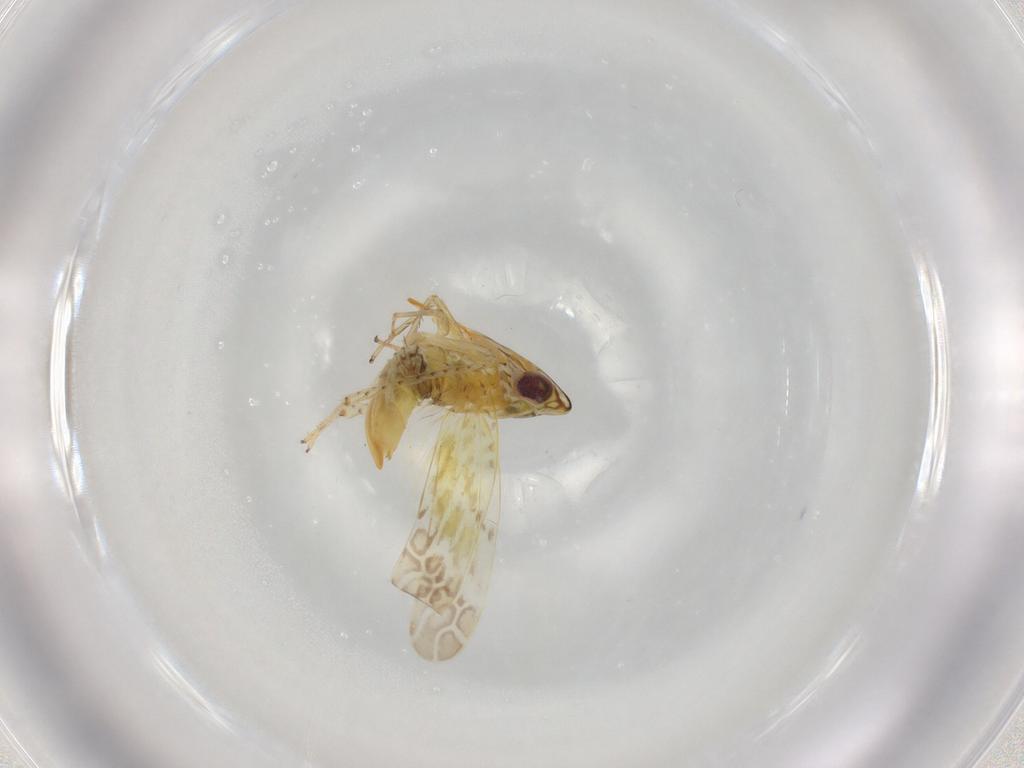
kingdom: Animalia
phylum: Arthropoda
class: Insecta
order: Hemiptera
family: Cicadellidae
